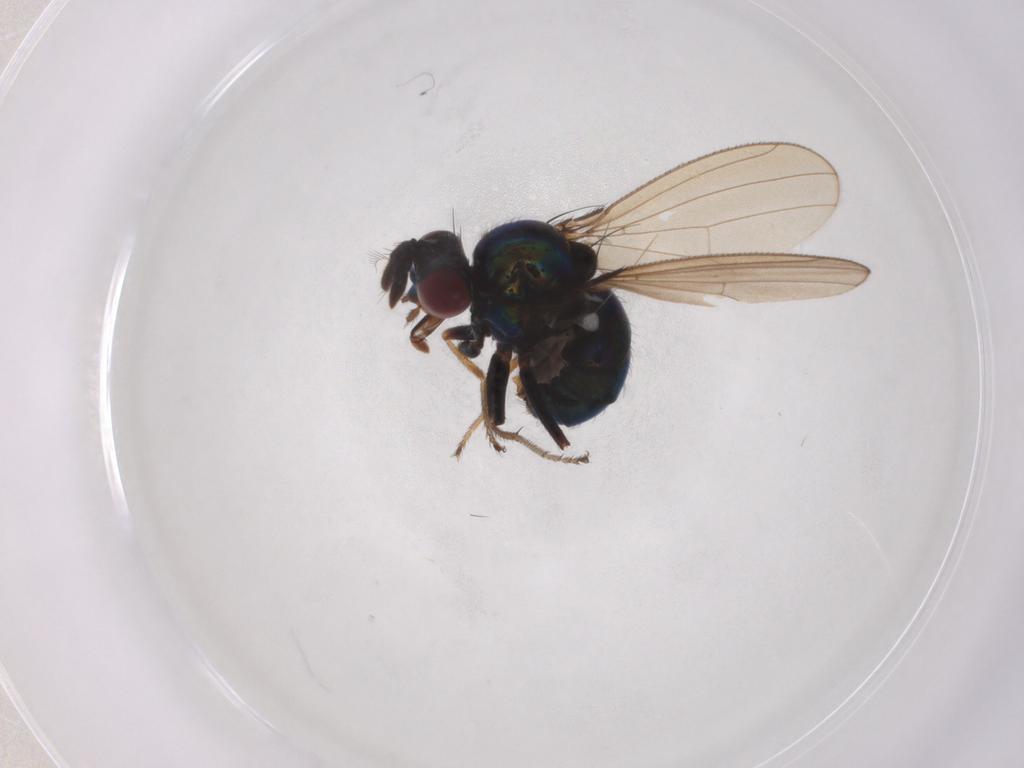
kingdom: Animalia
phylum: Arthropoda
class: Insecta
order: Diptera
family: Ephydridae
